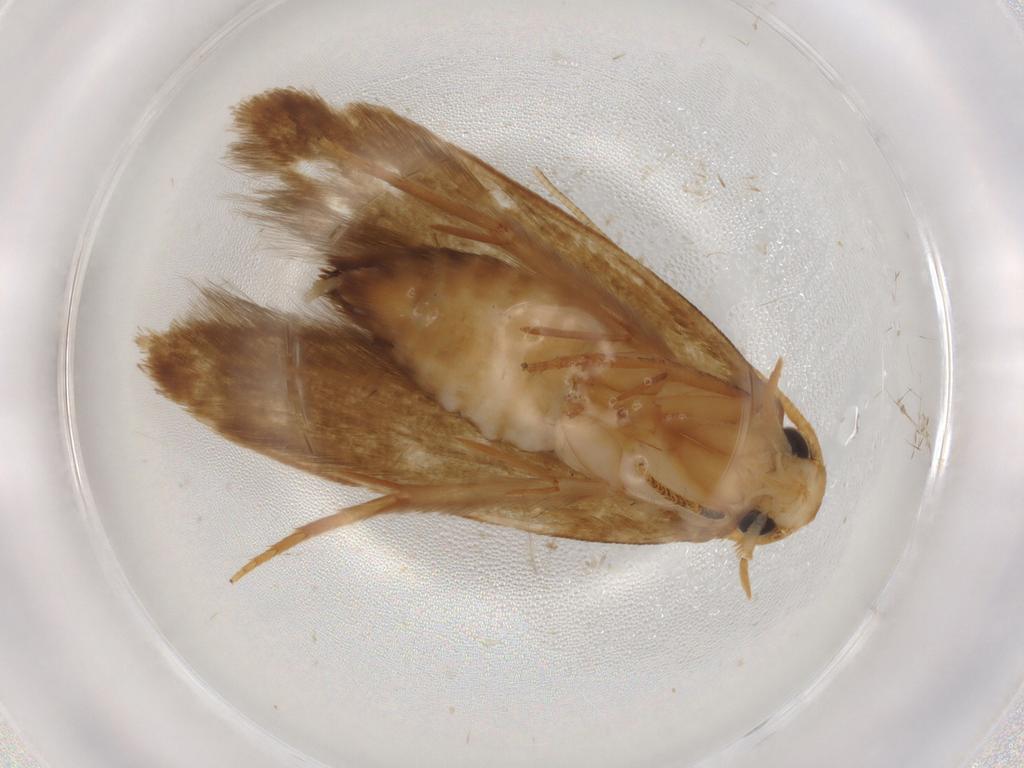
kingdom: Animalia
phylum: Arthropoda
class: Insecta
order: Lepidoptera
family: Tineidae
